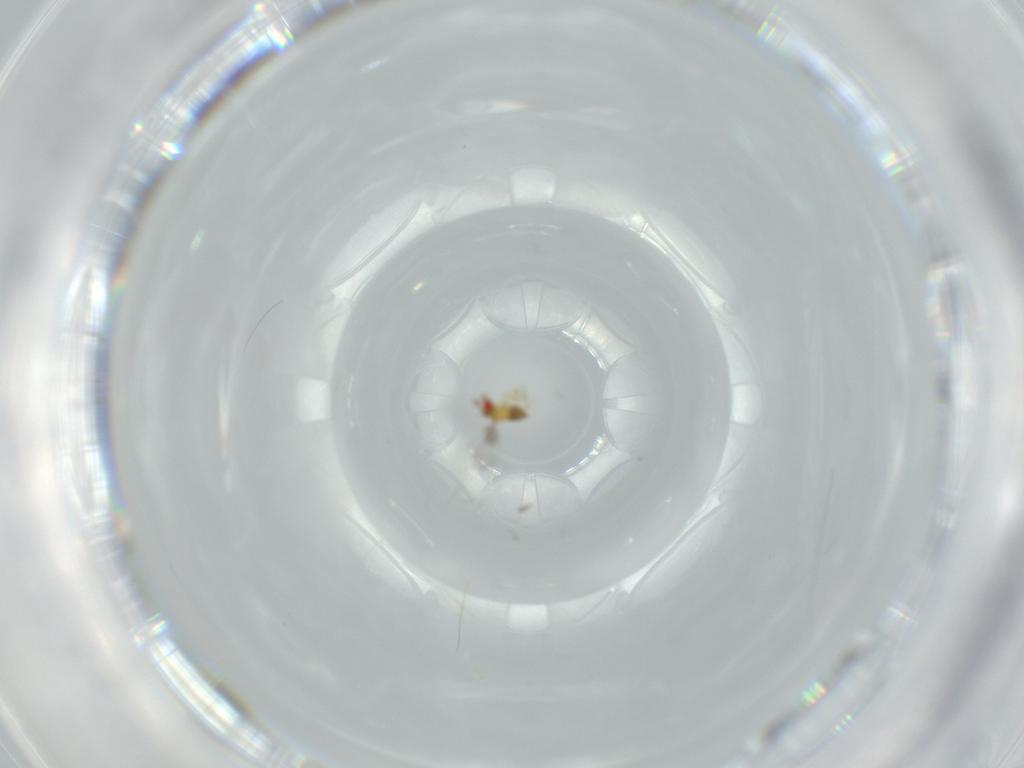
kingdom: Animalia
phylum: Arthropoda
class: Insecta
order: Hymenoptera
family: Trichogrammatidae
